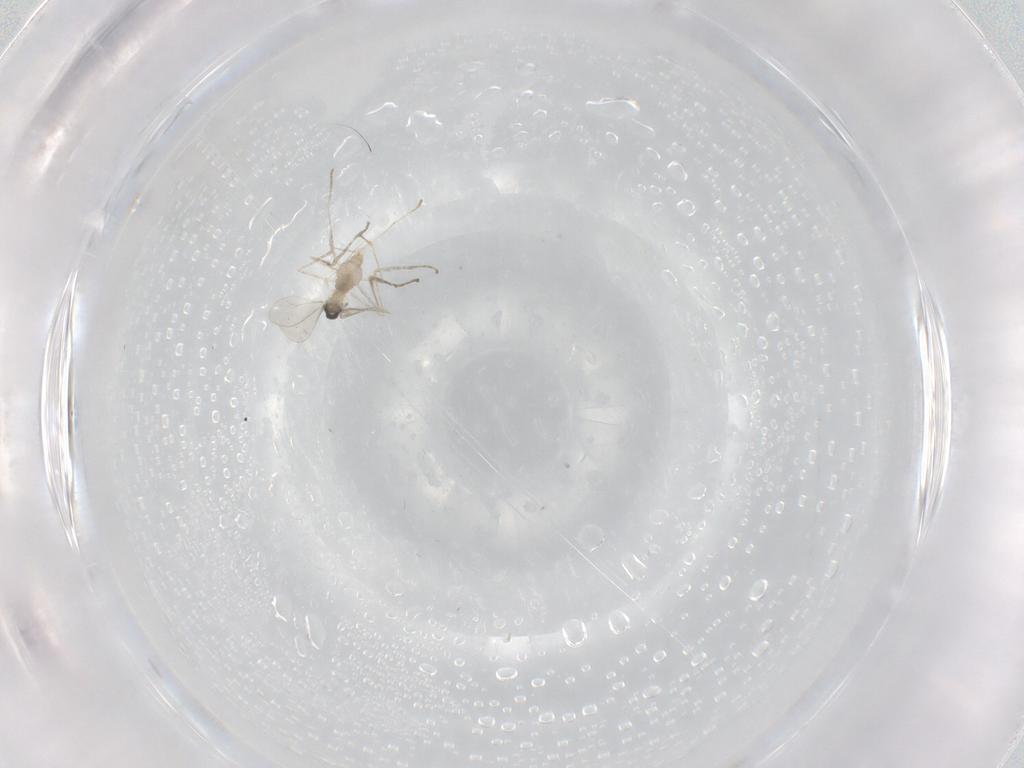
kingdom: Animalia
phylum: Arthropoda
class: Insecta
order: Diptera
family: Cecidomyiidae
